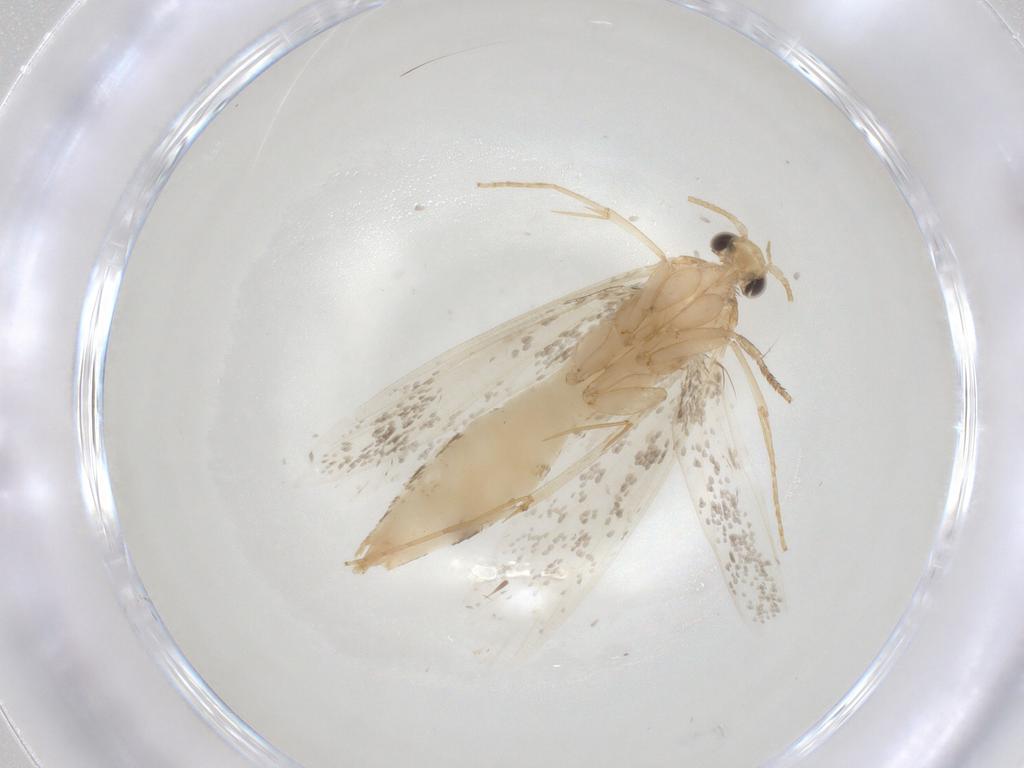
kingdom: Animalia
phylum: Arthropoda
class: Insecta
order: Lepidoptera
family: Tineidae
